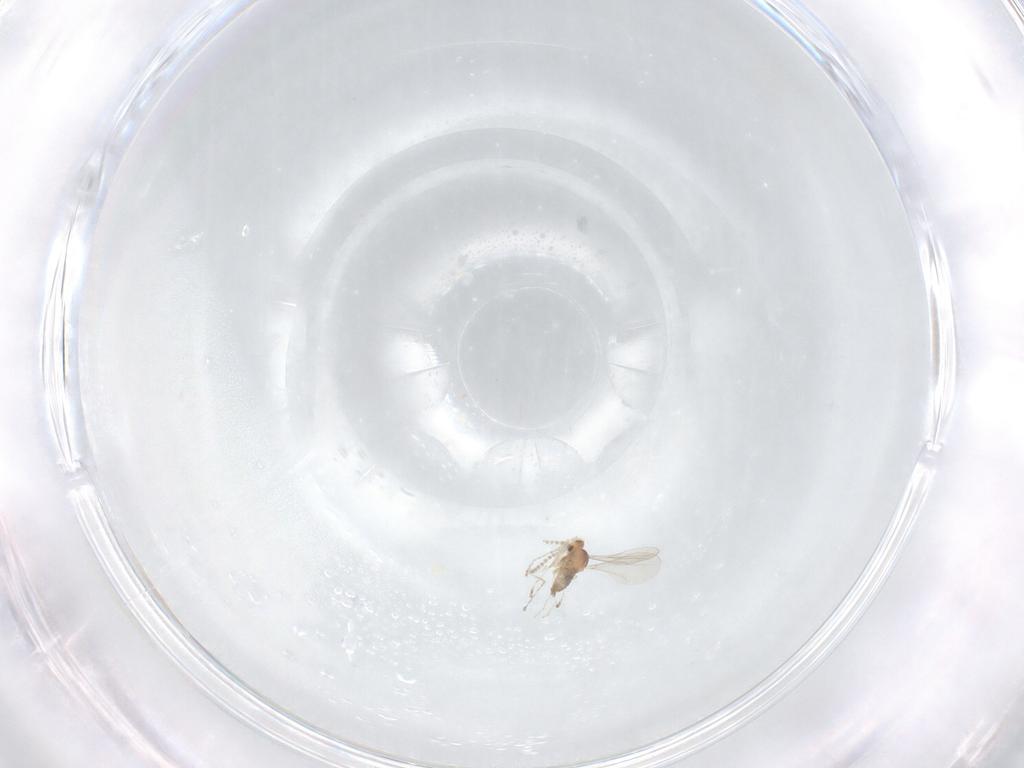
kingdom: Animalia
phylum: Arthropoda
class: Insecta
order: Diptera
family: Cecidomyiidae
